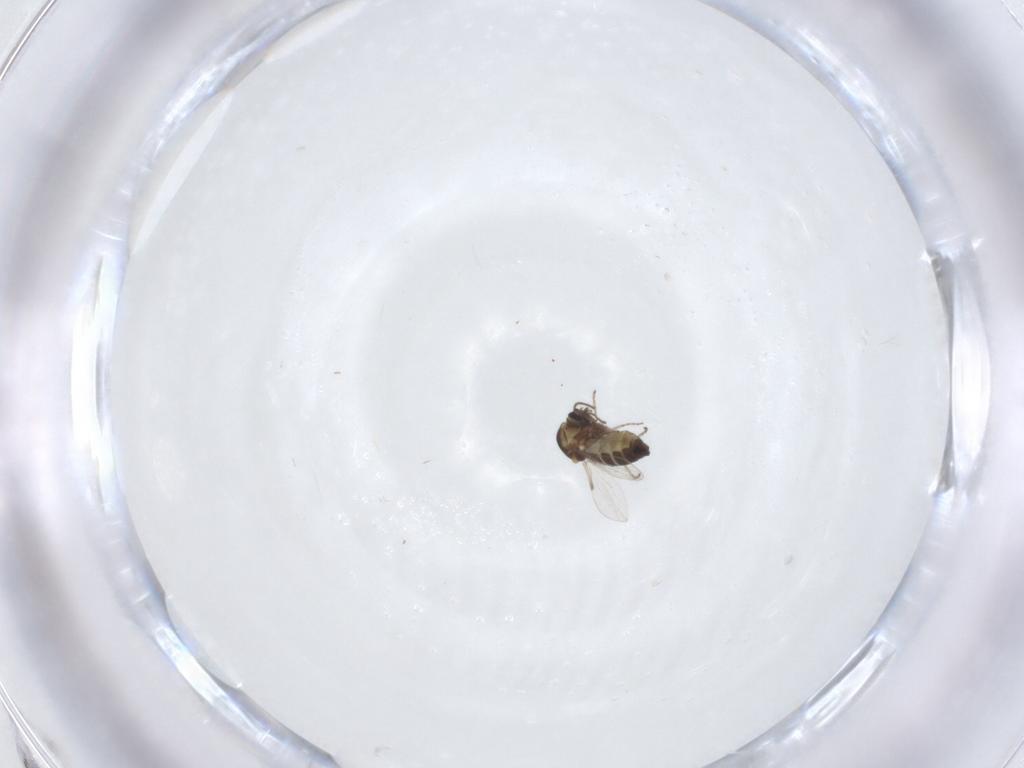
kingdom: Animalia
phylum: Arthropoda
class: Insecta
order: Diptera
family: Ceratopogonidae
